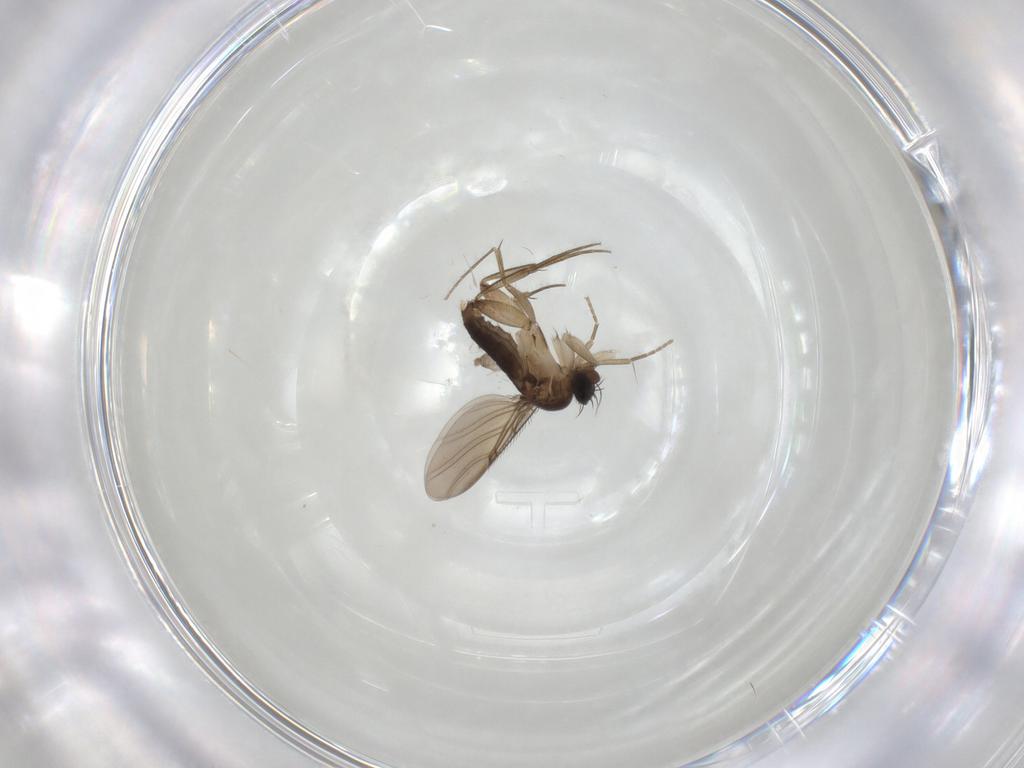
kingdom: Animalia
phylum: Arthropoda
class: Insecta
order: Diptera
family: Phoridae
